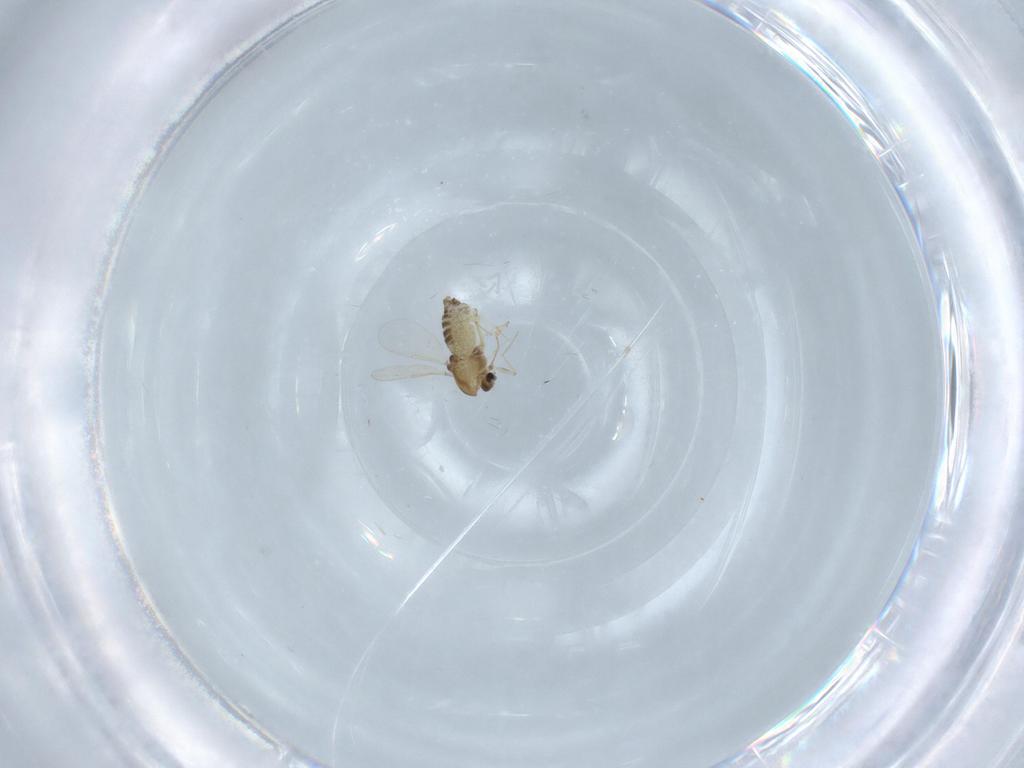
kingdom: Animalia
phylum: Arthropoda
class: Insecta
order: Diptera
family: Chironomidae
